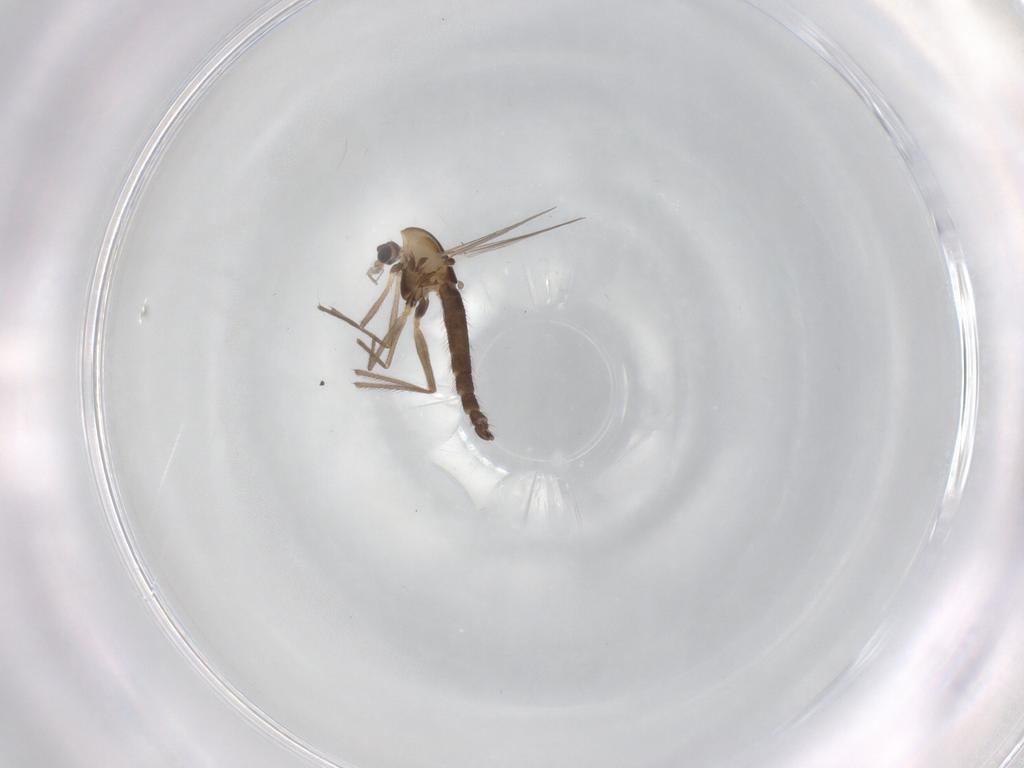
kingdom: Animalia
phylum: Arthropoda
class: Insecta
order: Diptera
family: Chironomidae
